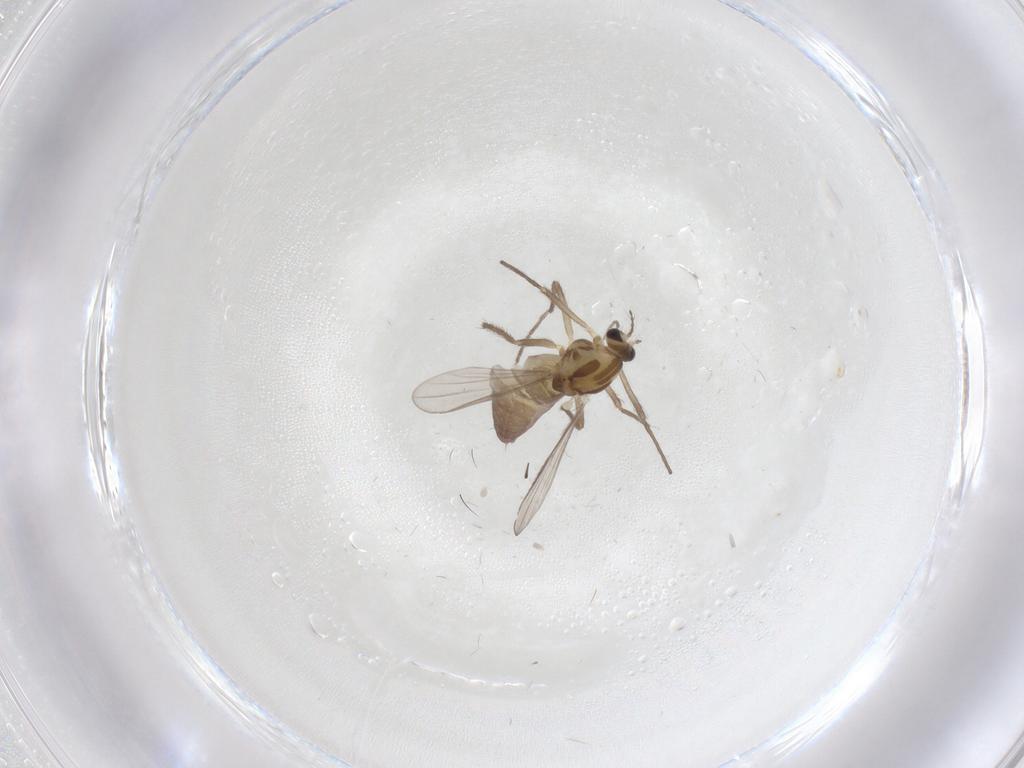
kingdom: Animalia
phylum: Arthropoda
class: Insecta
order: Diptera
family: Chironomidae
